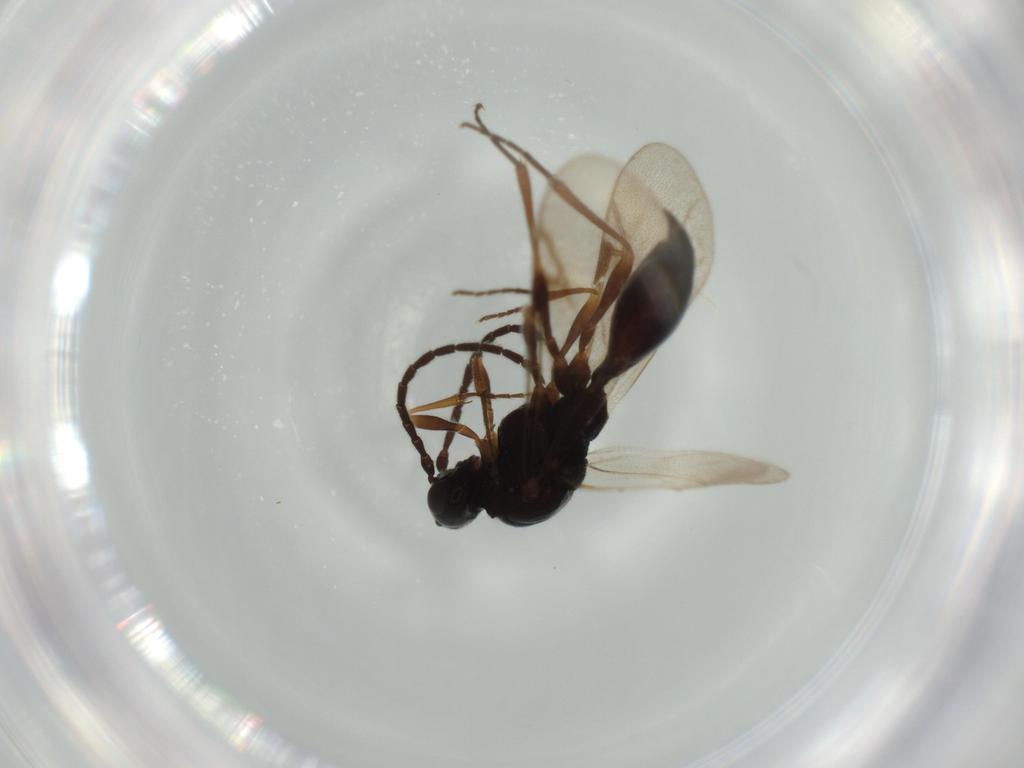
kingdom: Animalia
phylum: Arthropoda
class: Insecta
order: Hymenoptera
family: Proctotrupidae
